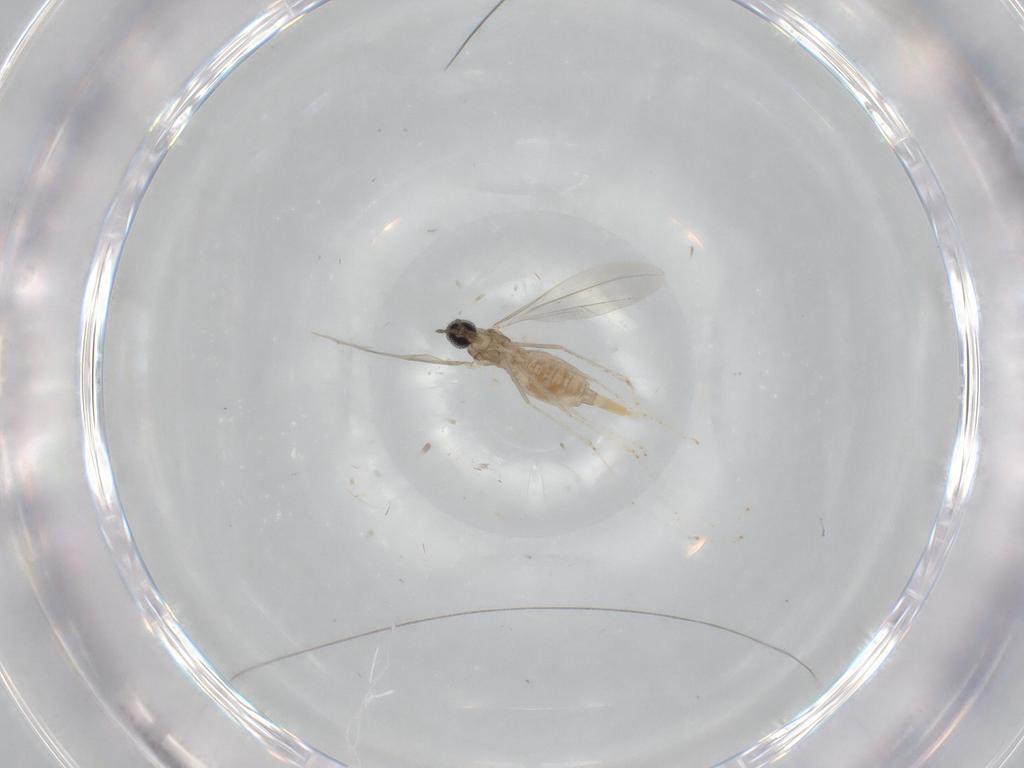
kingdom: Animalia
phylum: Arthropoda
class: Insecta
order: Diptera
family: Cecidomyiidae
